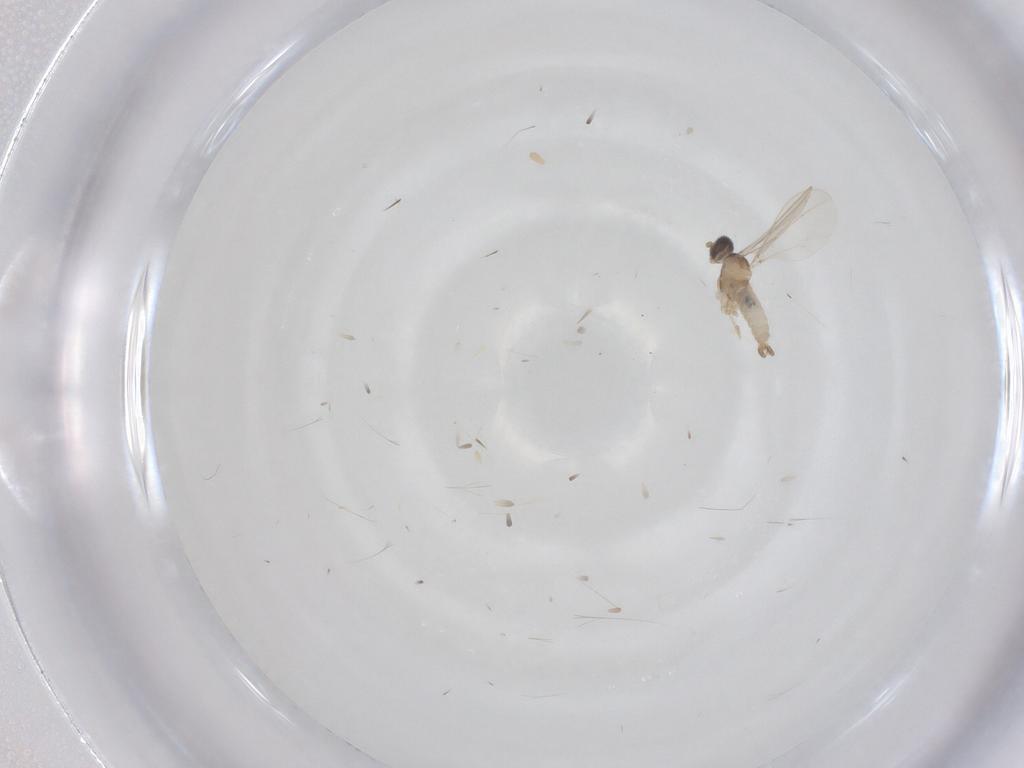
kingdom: Animalia
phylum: Arthropoda
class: Insecta
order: Diptera
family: Cecidomyiidae
